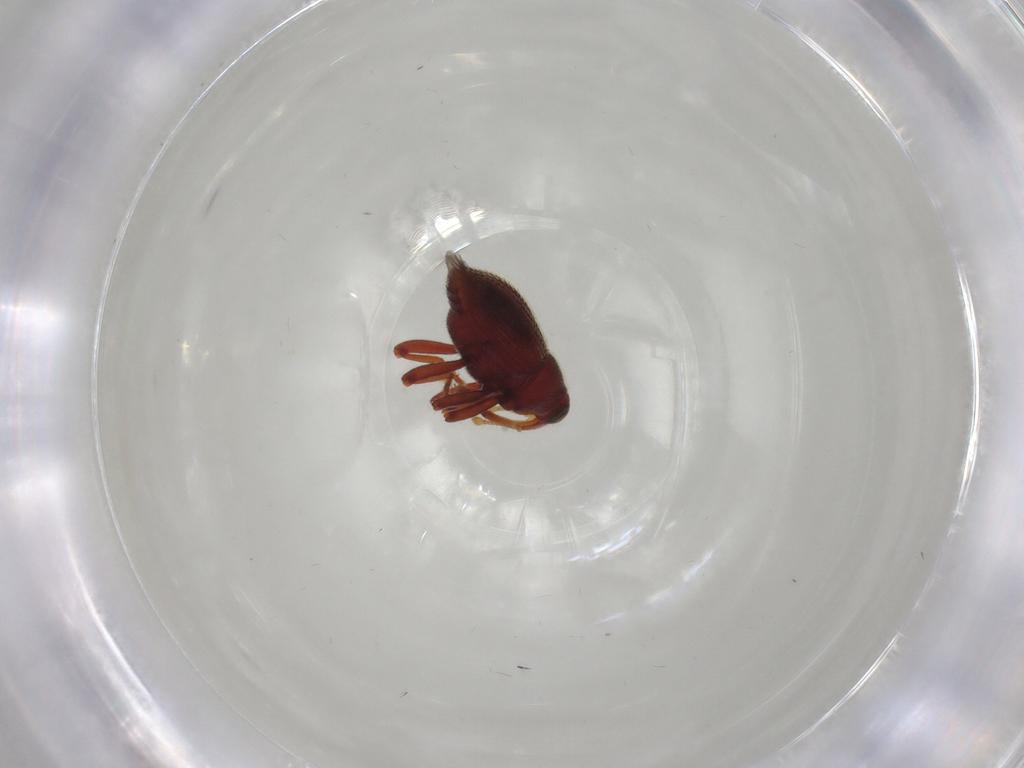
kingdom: Animalia
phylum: Arthropoda
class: Insecta
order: Coleoptera
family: Curculionidae
